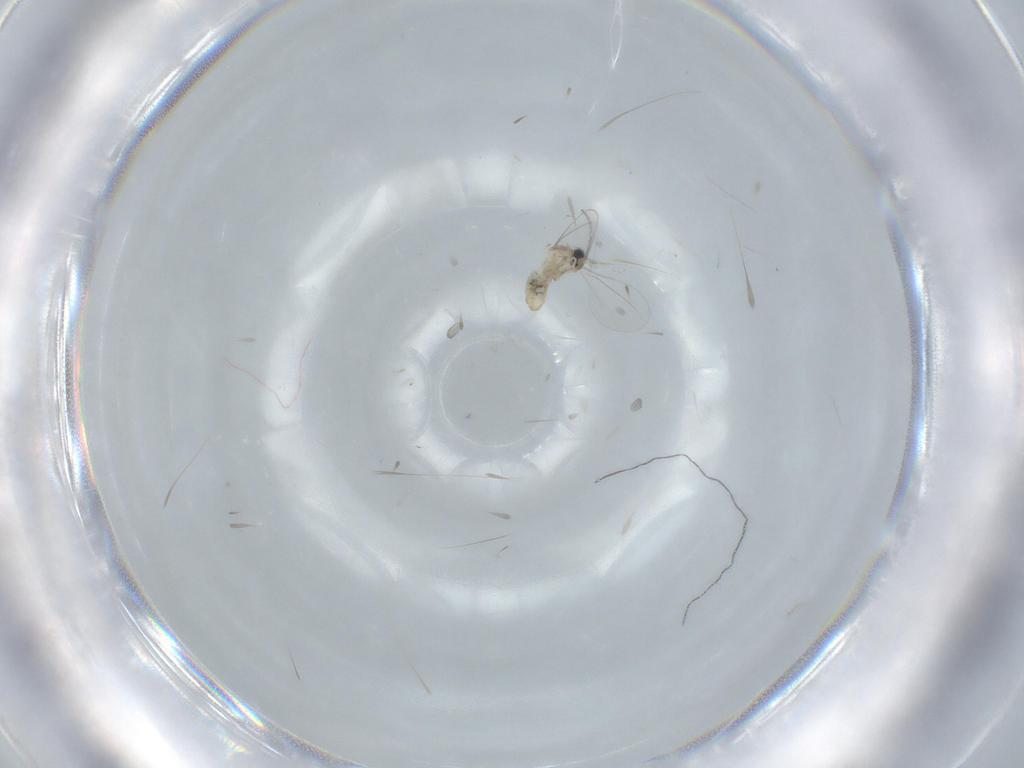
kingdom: Animalia
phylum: Arthropoda
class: Insecta
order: Diptera
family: Cecidomyiidae
